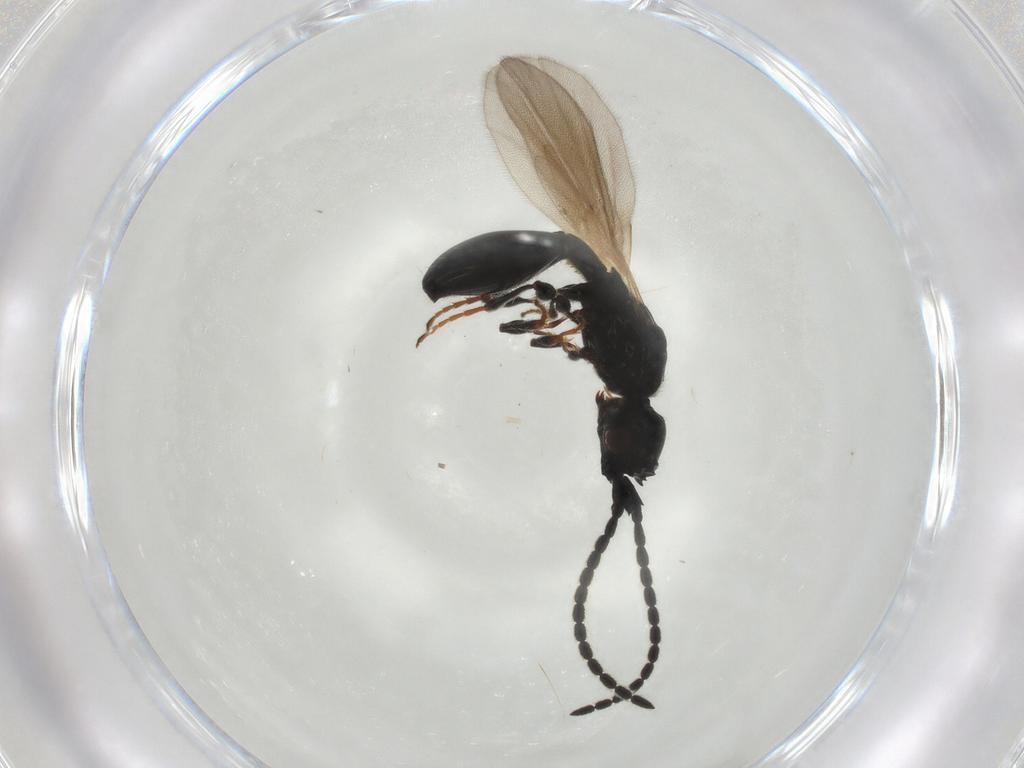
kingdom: Animalia
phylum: Arthropoda
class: Insecta
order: Hymenoptera
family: Diapriidae
